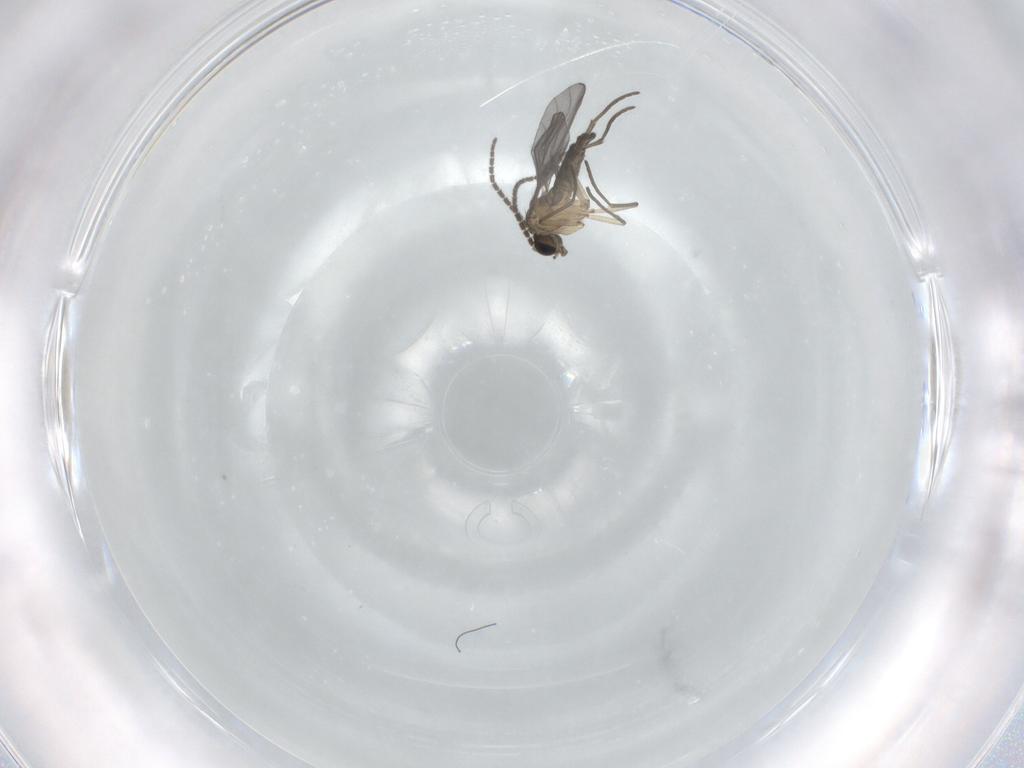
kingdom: Animalia
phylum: Arthropoda
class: Insecta
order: Diptera
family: Sciaridae
